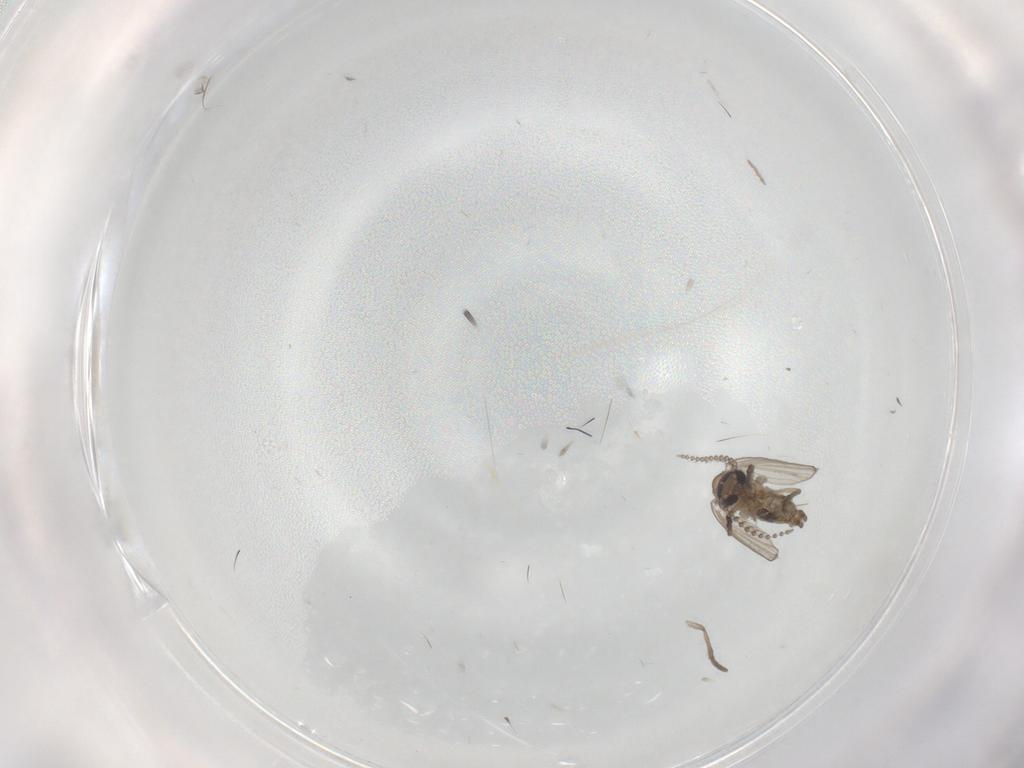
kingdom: Animalia
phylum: Arthropoda
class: Insecta
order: Diptera
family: Psychodidae
